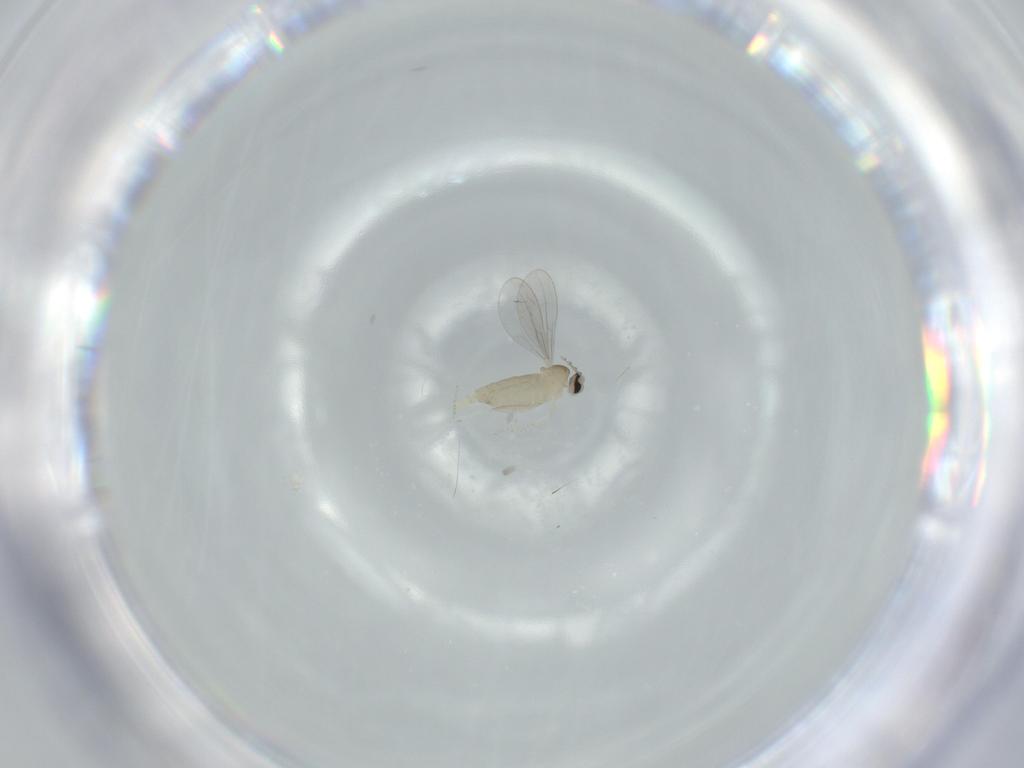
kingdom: Animalia
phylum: Arthropoda
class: Insecta
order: Diptera
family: Cecidomyiidae
